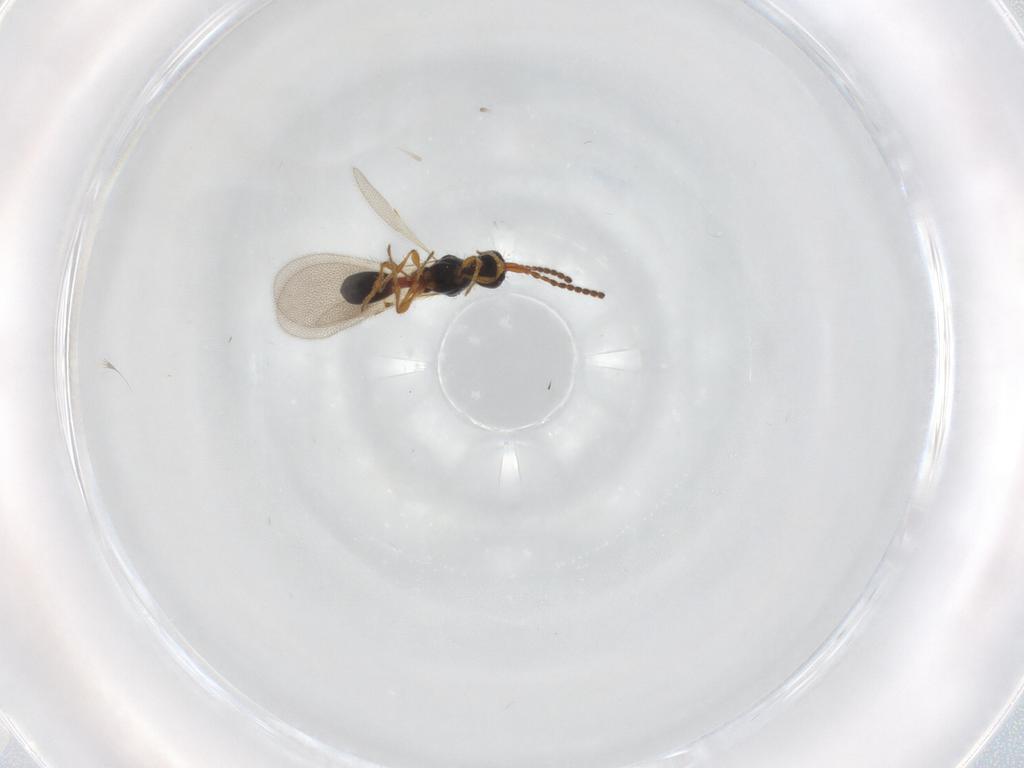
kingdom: Animalia
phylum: Arthropoda
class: Insecta
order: Hymenoptera
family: Diapriidae
